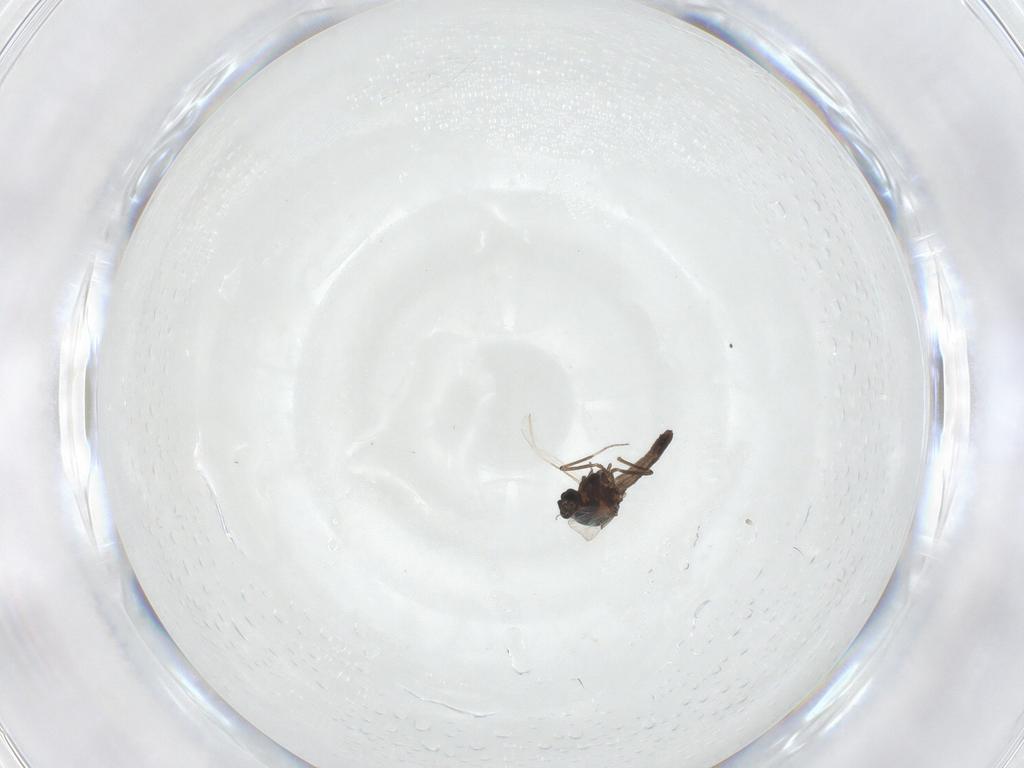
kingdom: Animalia
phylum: Arthropoda
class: Insecta
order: Diptera
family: Ceratopogonidae
